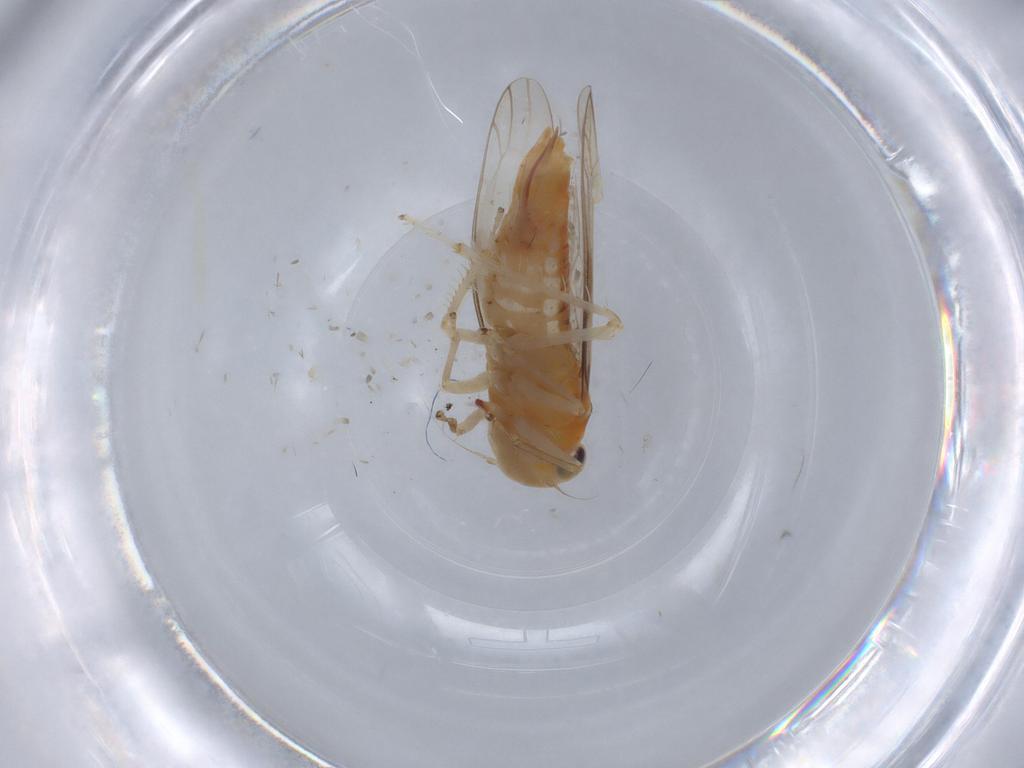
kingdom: Animalia
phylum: Arthropoda
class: Insecta
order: Hemiptera
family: Cicadellidae
